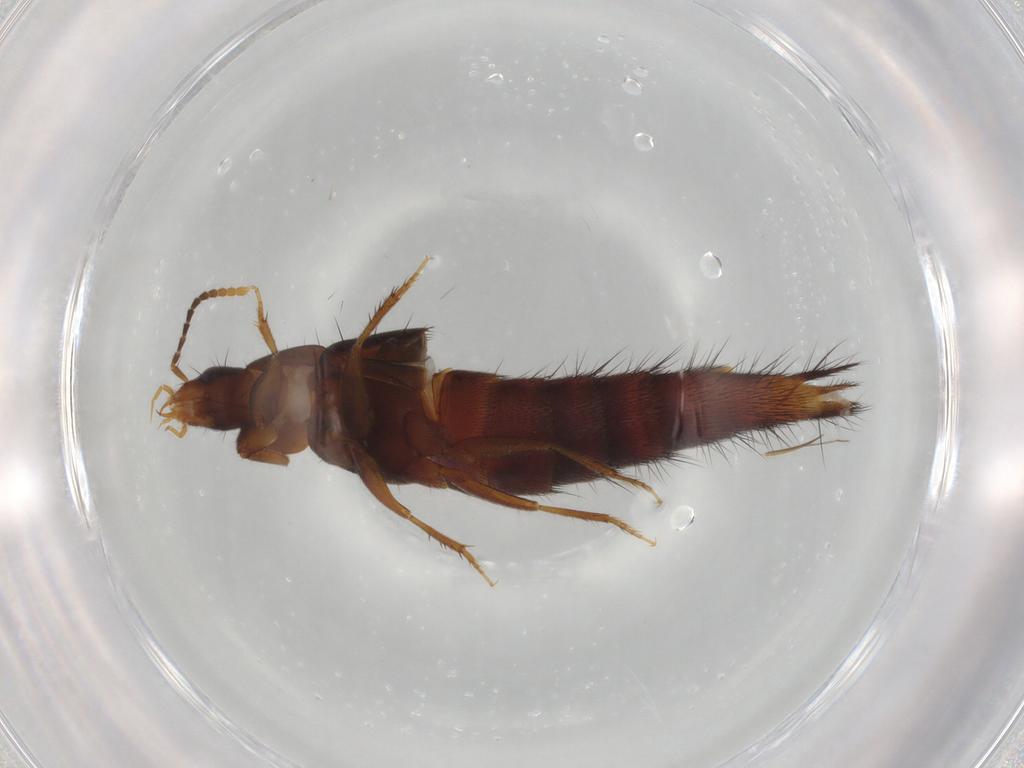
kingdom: Animalia
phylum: Arthropoda
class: Insecta
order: Coleoptera
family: Staphylinidae
